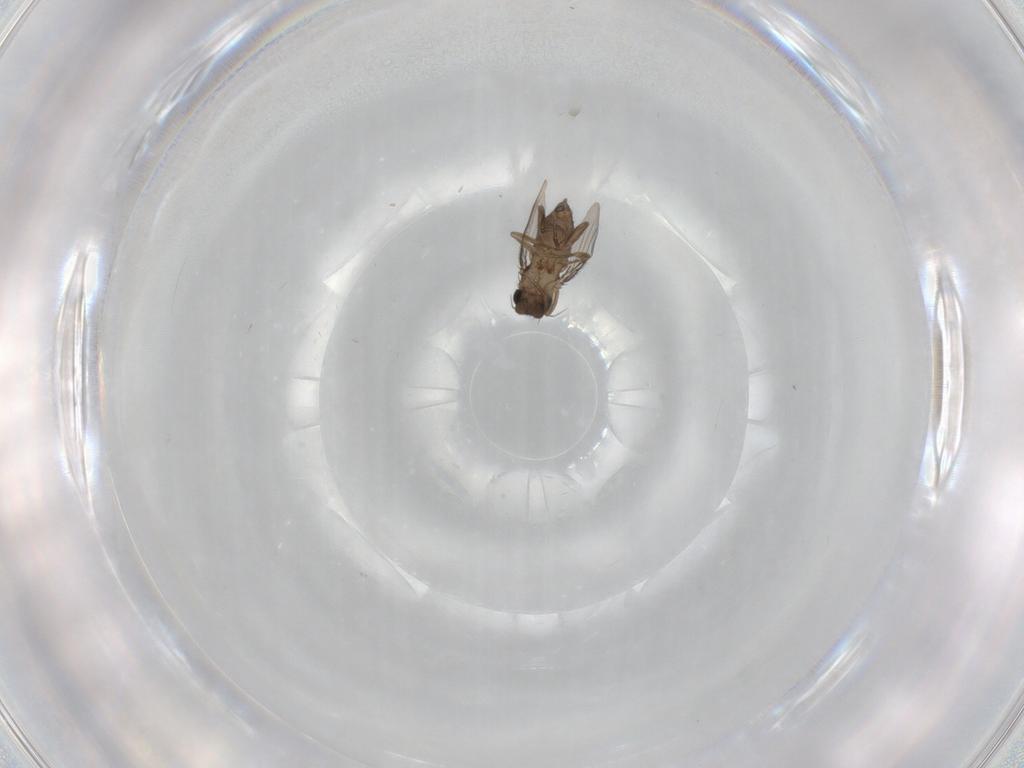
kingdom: Animalia
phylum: Arthropoda
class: Insecta
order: Diptera
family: Phoridae
